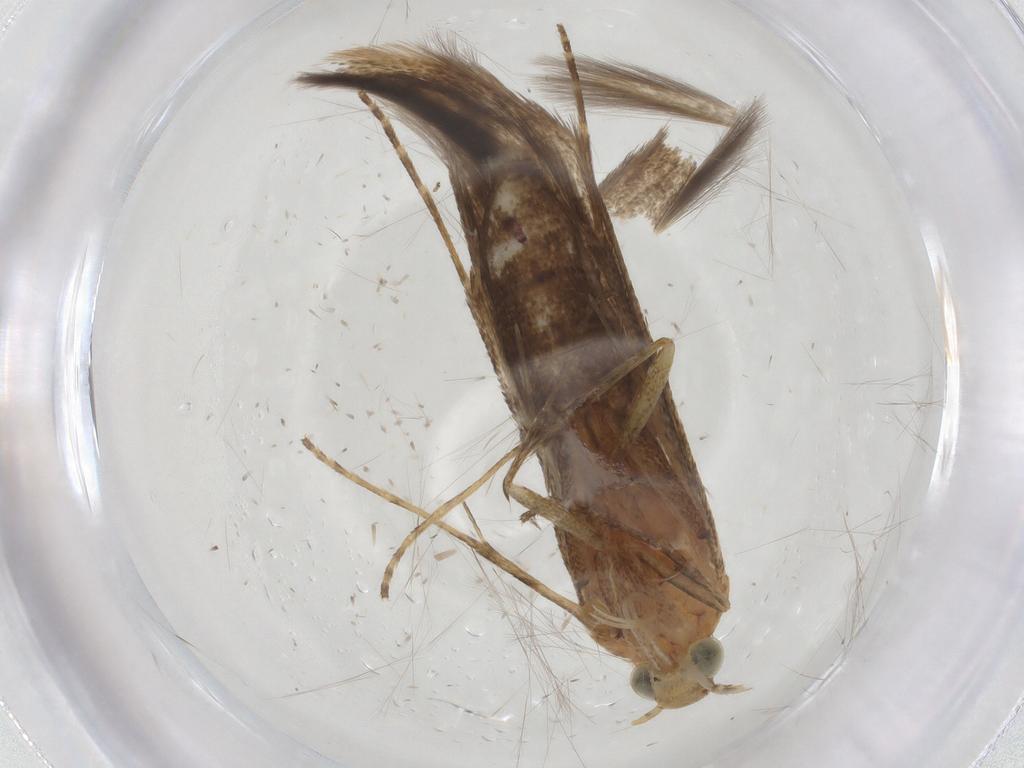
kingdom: Animalia
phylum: Arthropoda
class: Insecta
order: Lepidoptera
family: Batrachedridae
